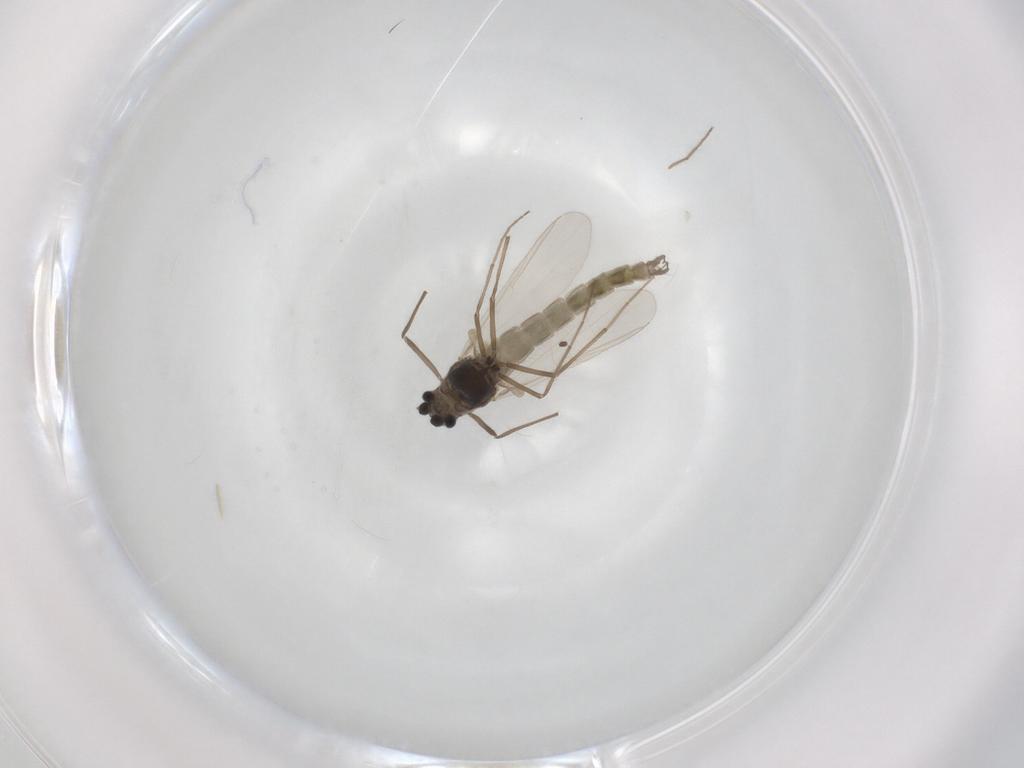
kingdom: Animalia
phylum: Arthropoda
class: Insecta
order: Diptera
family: Chironomidae
